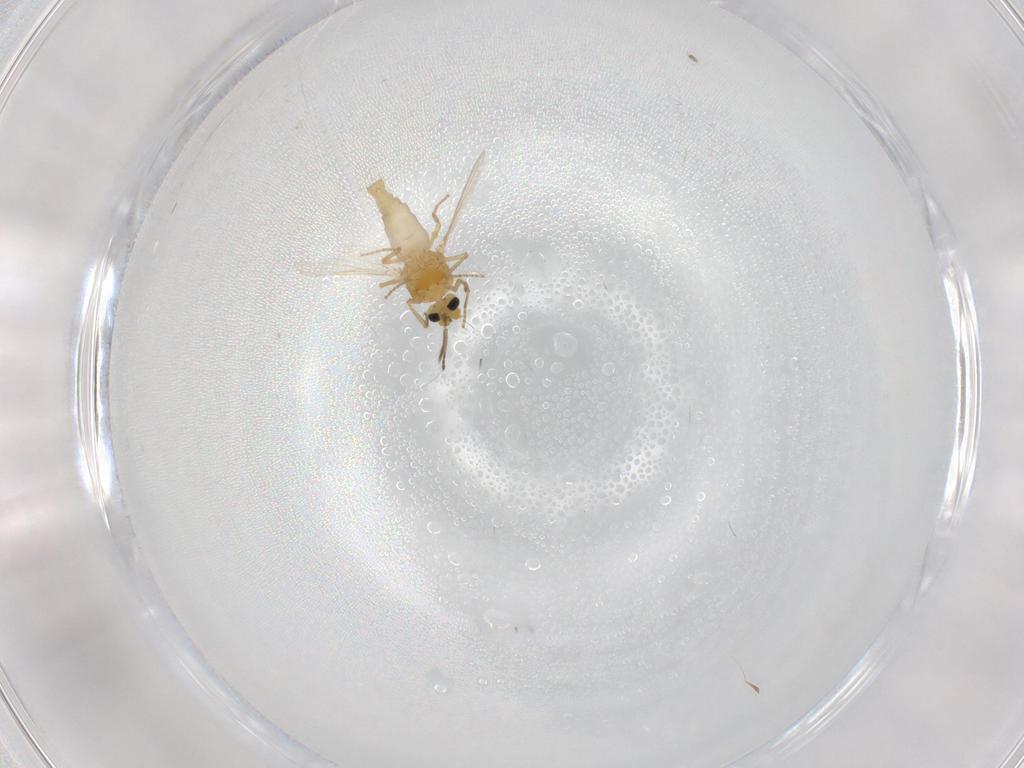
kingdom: Animalia
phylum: Arthropoda
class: Insecta
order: Diptera
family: Ceratopogonidae
